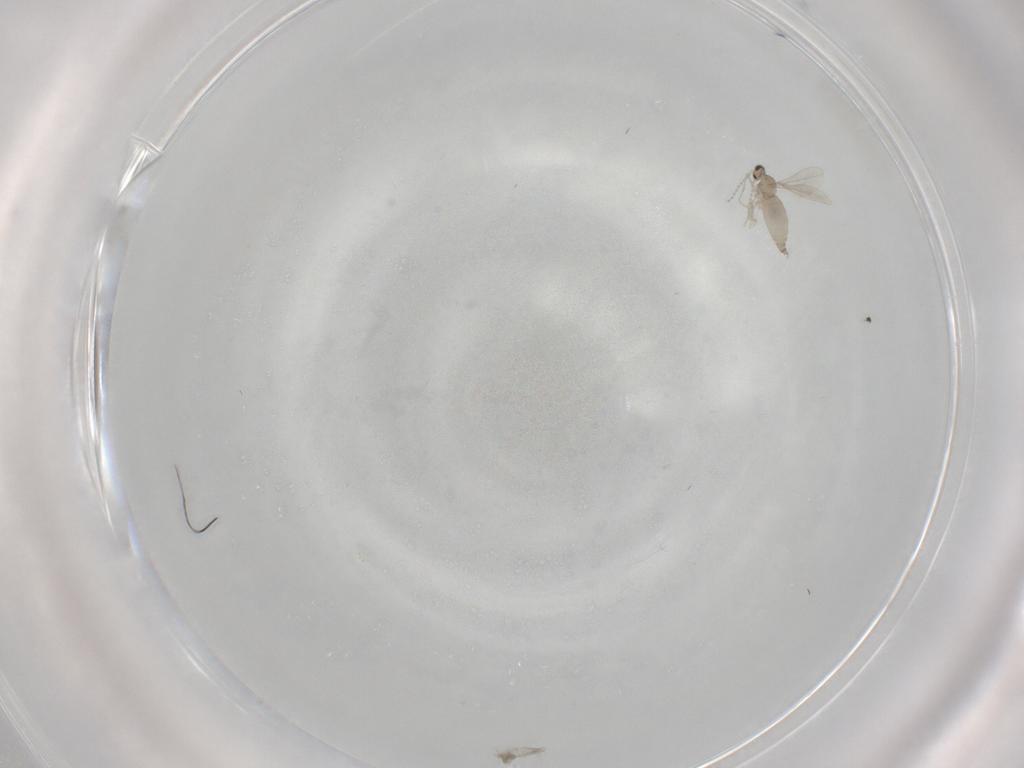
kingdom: Animalia
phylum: Arthropoda
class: Insecta
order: Diptera
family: Cecidomyiidae
